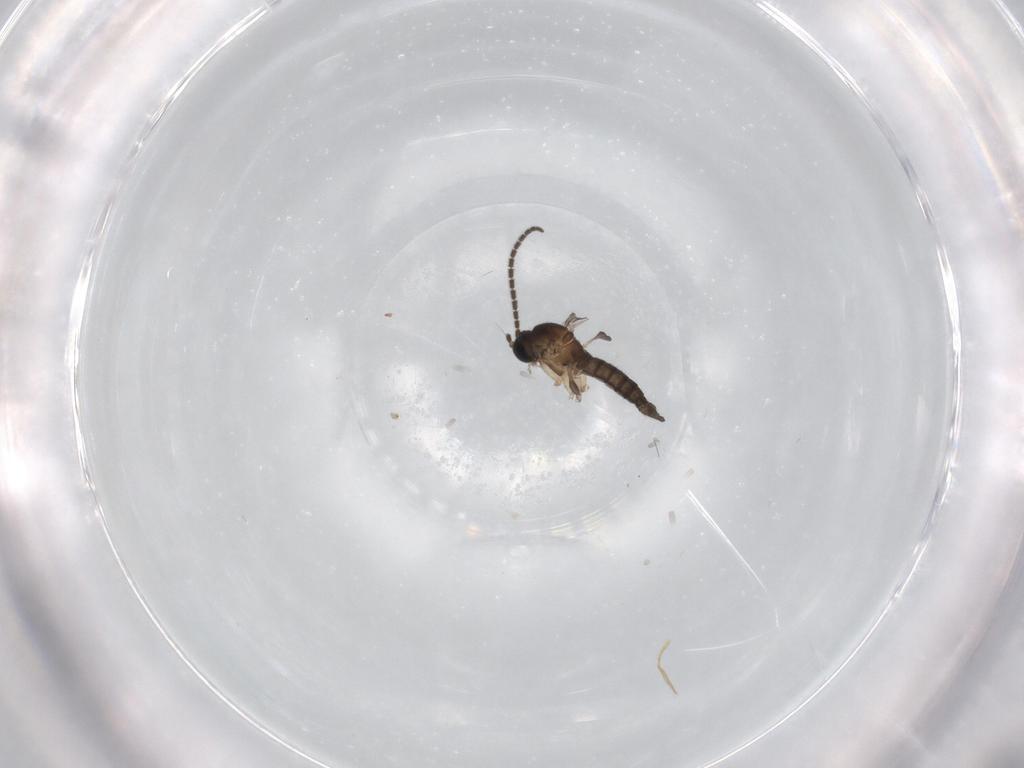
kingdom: Animalia
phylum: Arthropoda
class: Insecta
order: Diptera
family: Sciaridae
